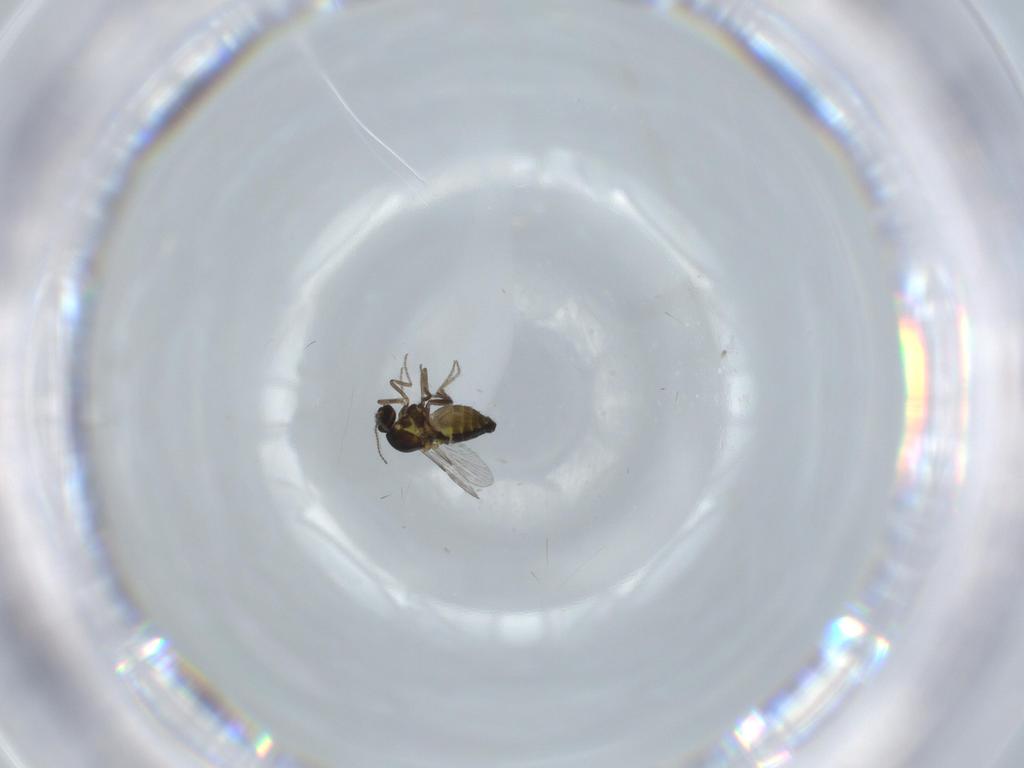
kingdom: Animalia
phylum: Arthropoda
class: Insecta
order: Diptera
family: Ceratopogonidae
